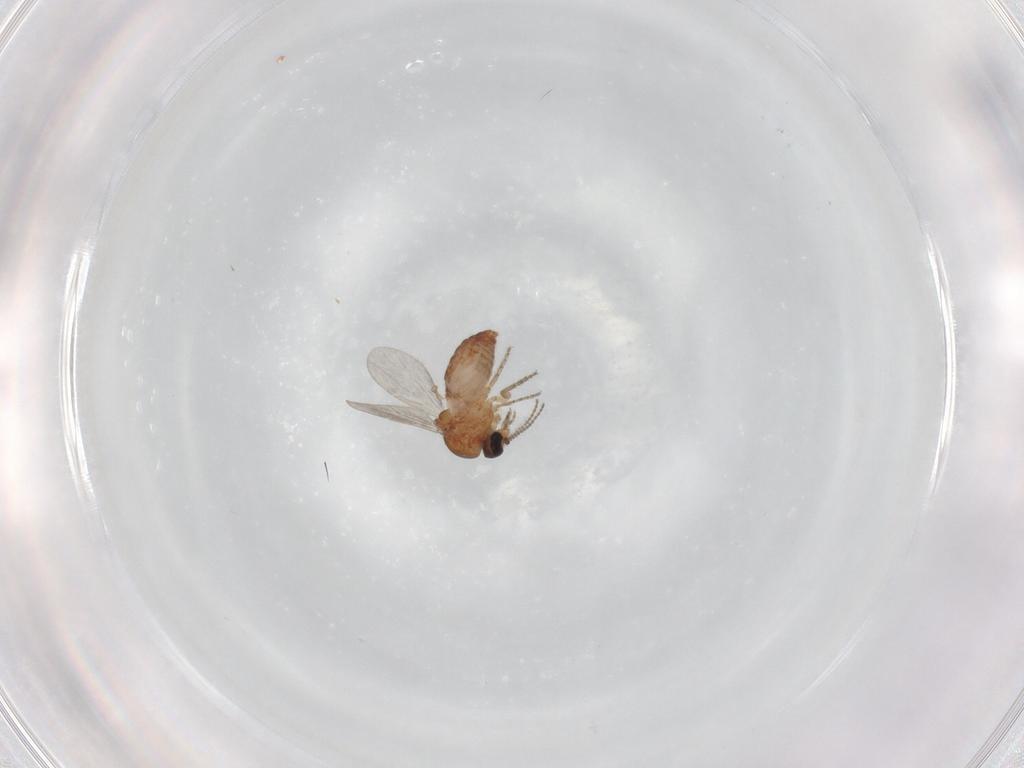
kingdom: Animalia
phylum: Arthropoda
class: Insecta
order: Diptera
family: Ceratopogonidae
